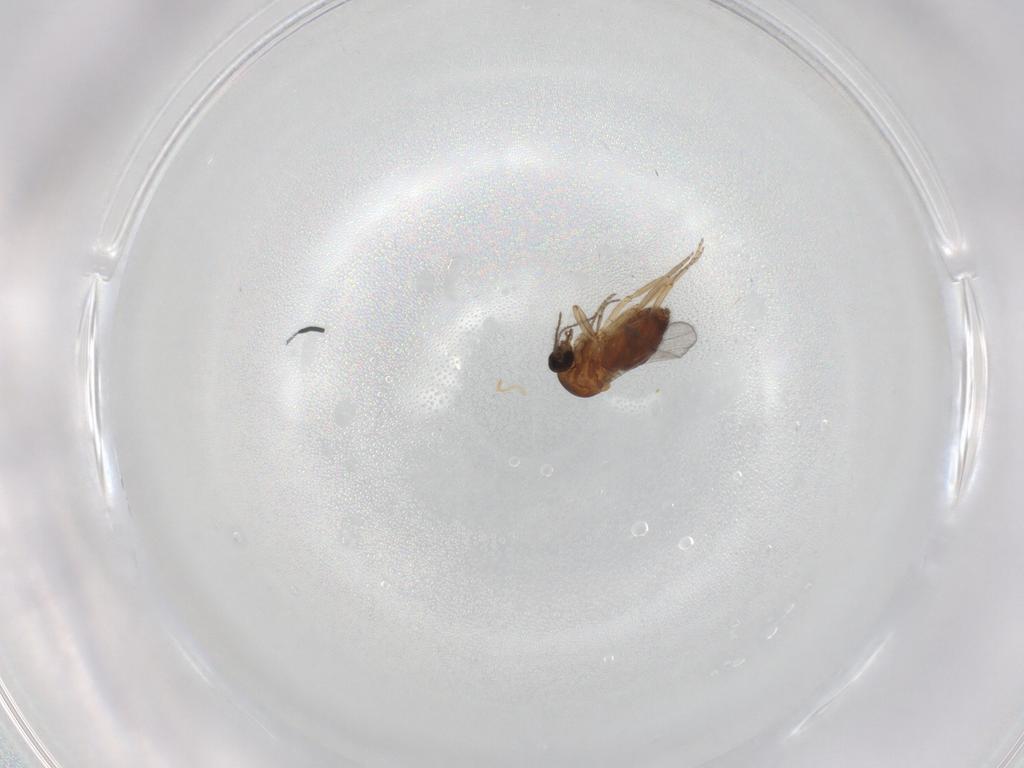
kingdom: Animalia
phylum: Arthropoda
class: Insecta
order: Diptera
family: Ceratopogonidae
